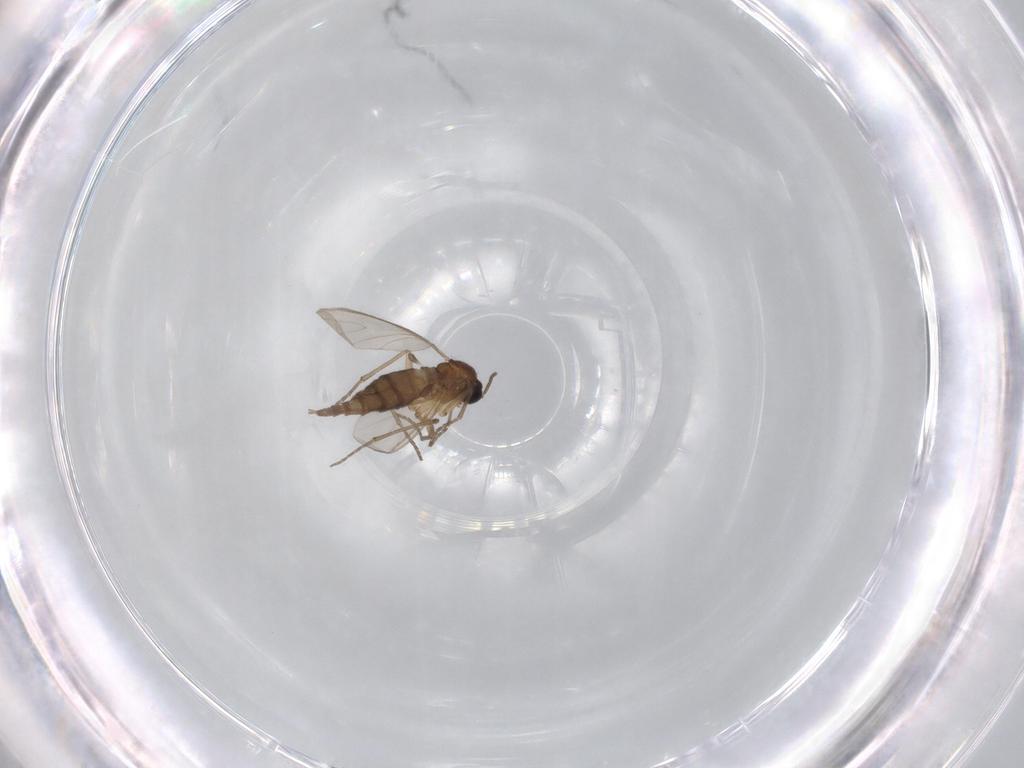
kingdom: Animalia
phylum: Arthropoda
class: Insecta
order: Diptera
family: Sciaridae
